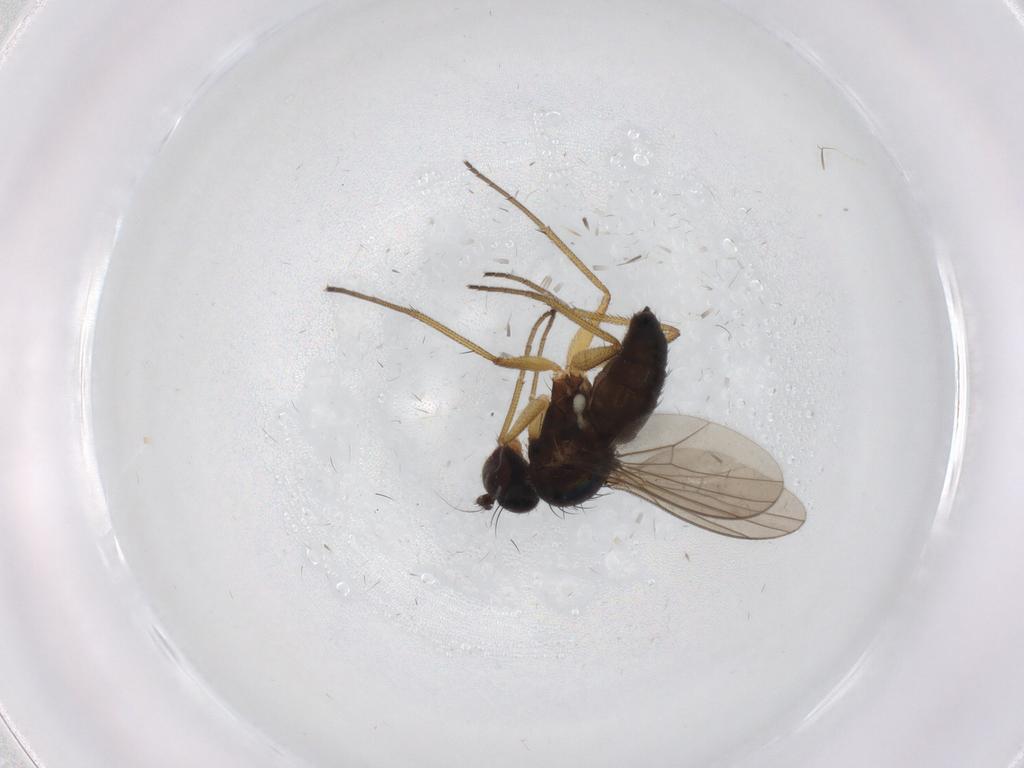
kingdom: Animalia
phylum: Arthropoda
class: Insecta
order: Diptera
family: Dolichopodidae
